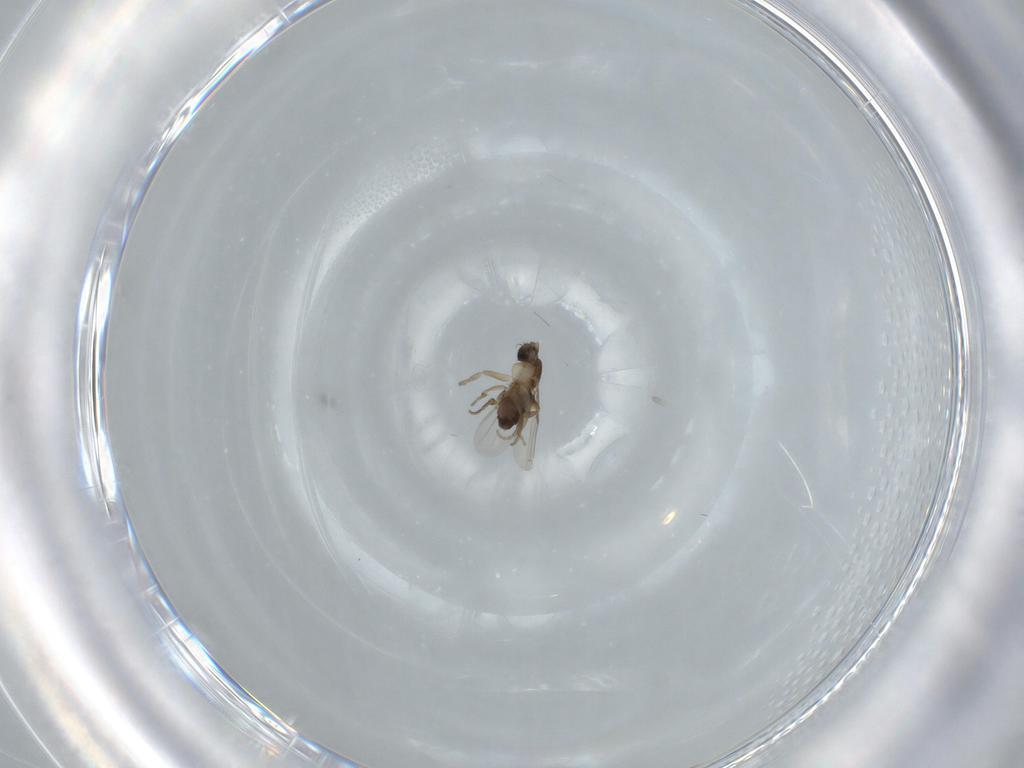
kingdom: Animalia
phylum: Arthropoda
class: Insecta
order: Diptera
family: Phoridae
